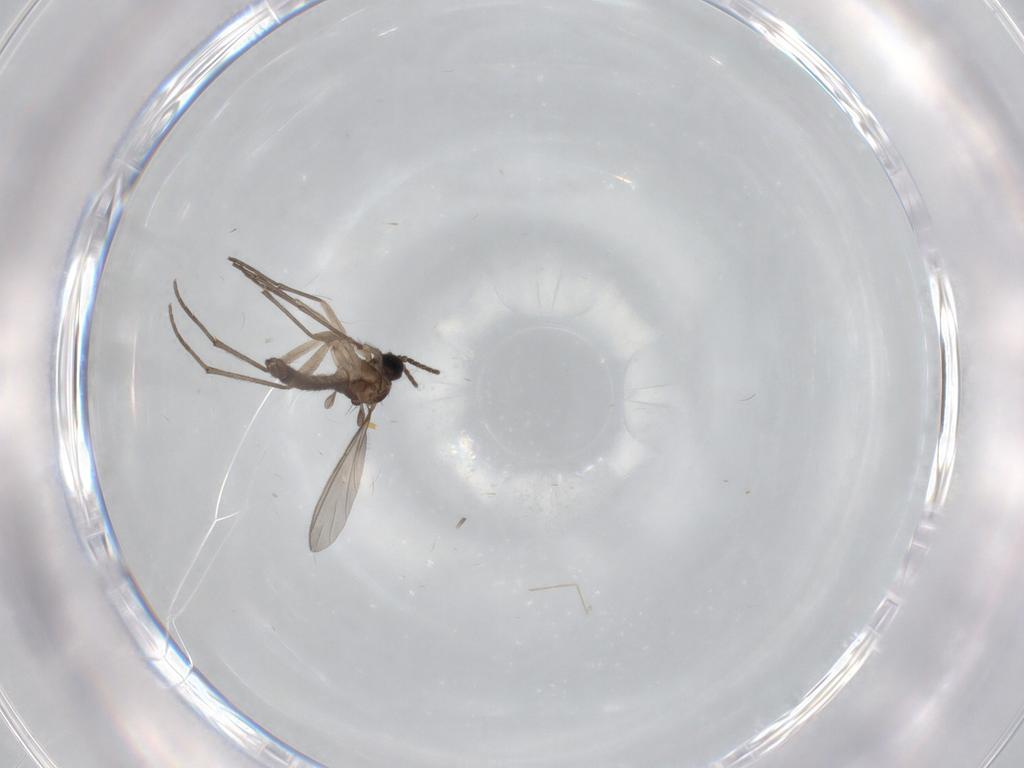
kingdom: Animalia
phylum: Arthropoda
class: Insecta
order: Diptera
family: Sciaridae
